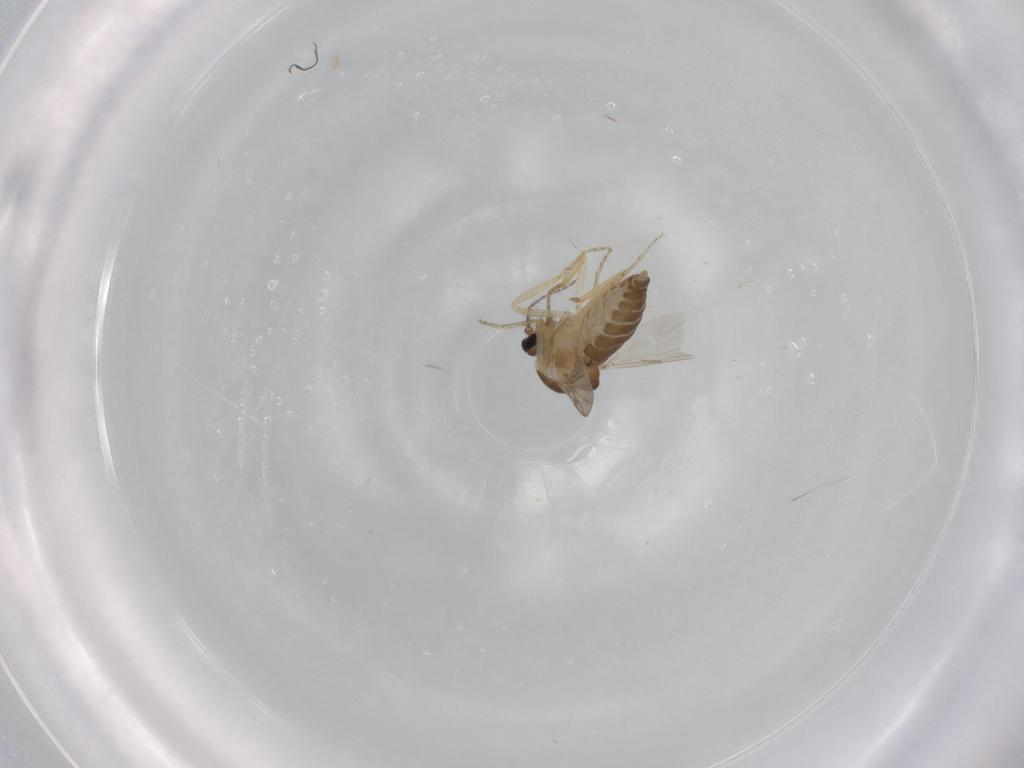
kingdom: Animalia
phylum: Arthropoda
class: Insecta
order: Diptera
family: Ceratopogonidae
